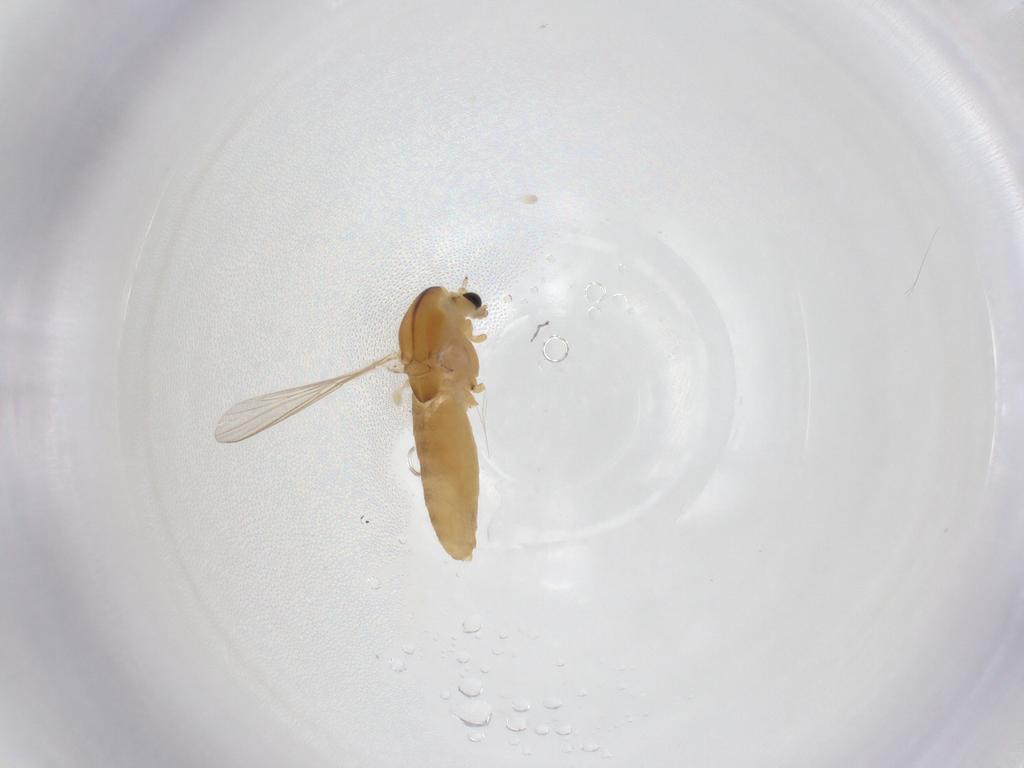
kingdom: Animalia
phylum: Arthropoda
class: Insecta
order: Diptera
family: Chironomidae
